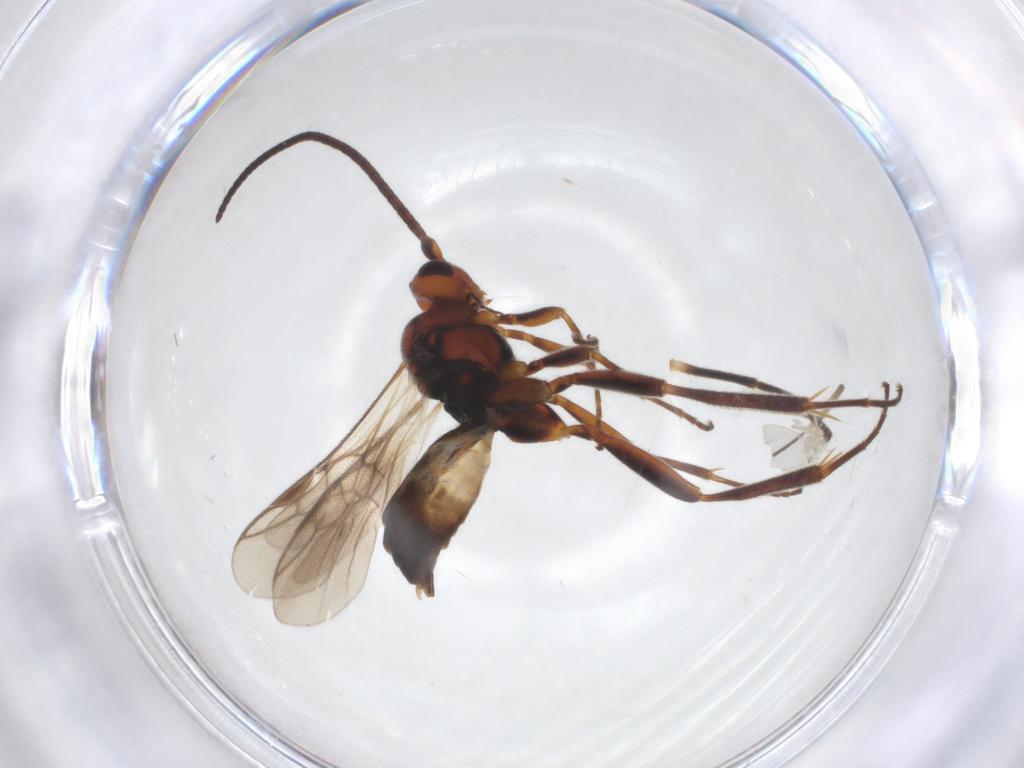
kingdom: Animalia
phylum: Arthropoda
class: Insecta
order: Hymenoptera
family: Braconidae
